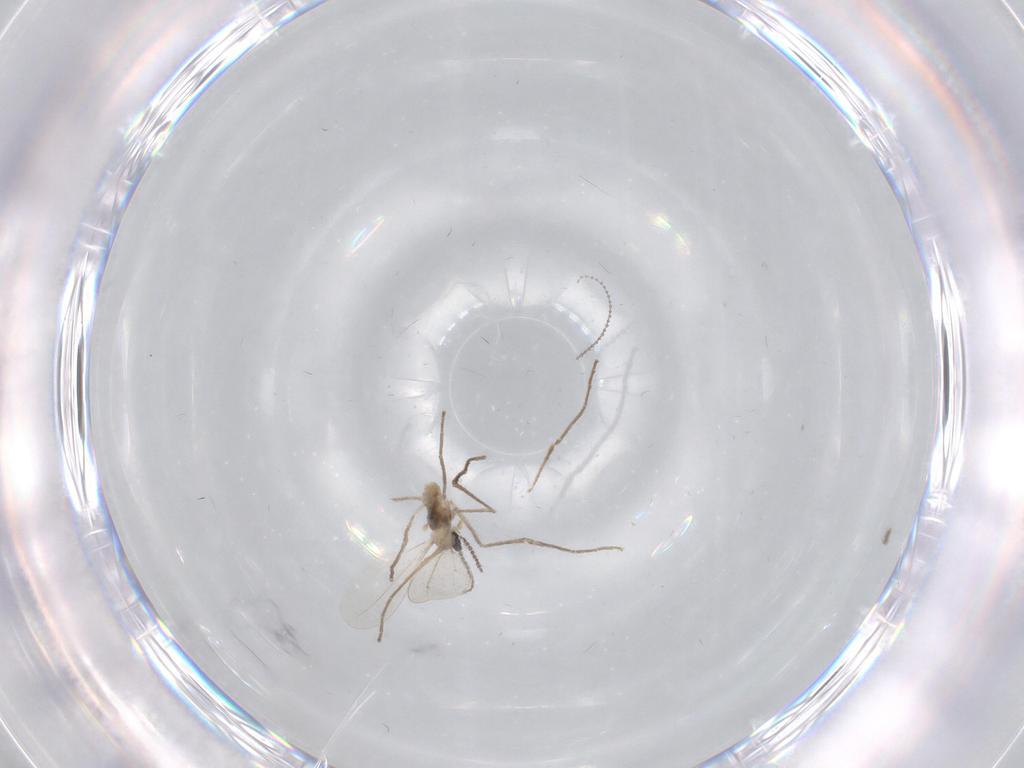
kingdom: Animalia
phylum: Arthropoda
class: Insecta
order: Diptera
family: Cecidomyiidae
